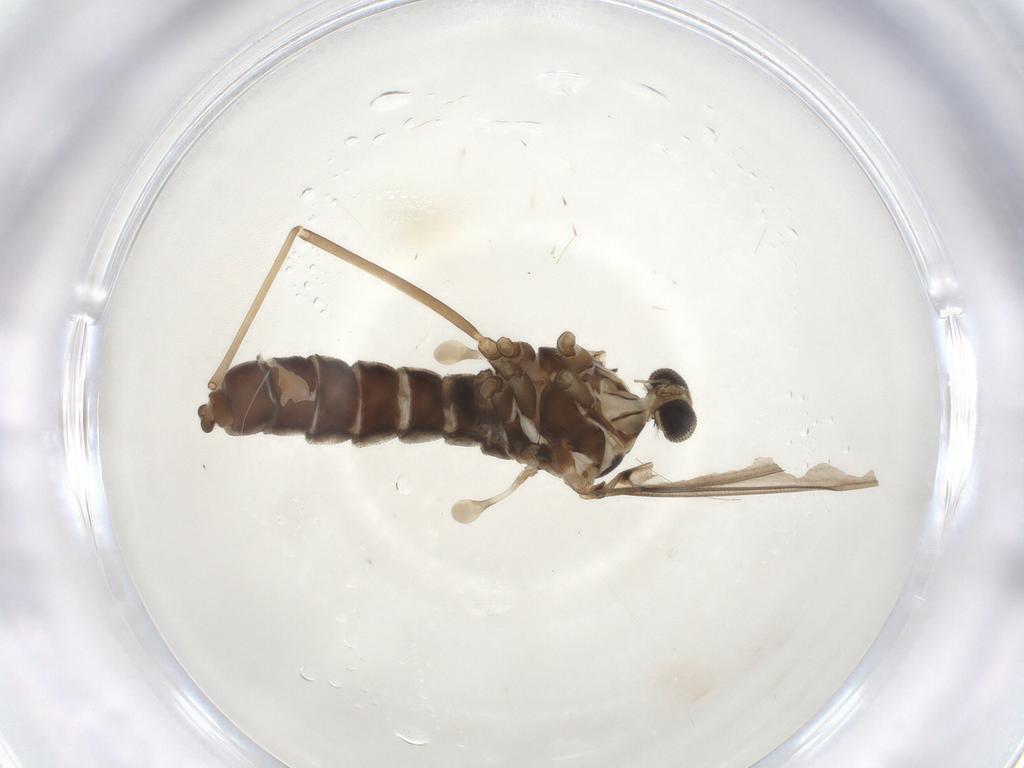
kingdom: Animalia
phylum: Arthropoda
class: Insecta
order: Diptera
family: Cecidomyiidae
